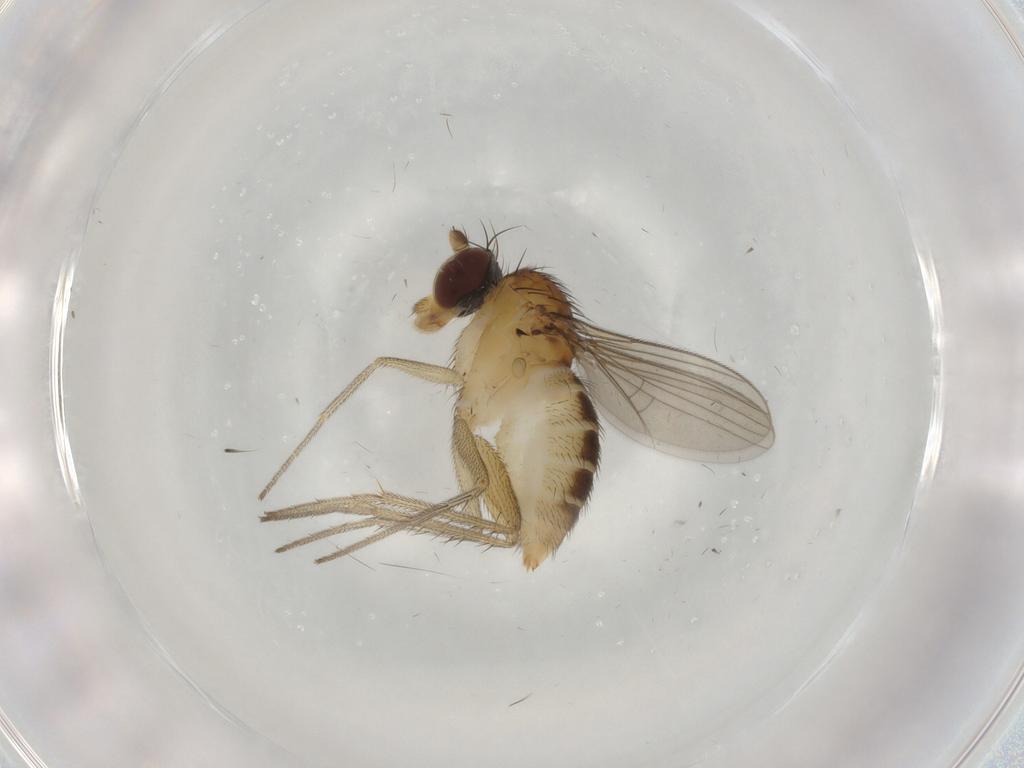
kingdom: Animalia
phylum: Arthropoda
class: Insecta
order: Diptera
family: Dolichopodidae
